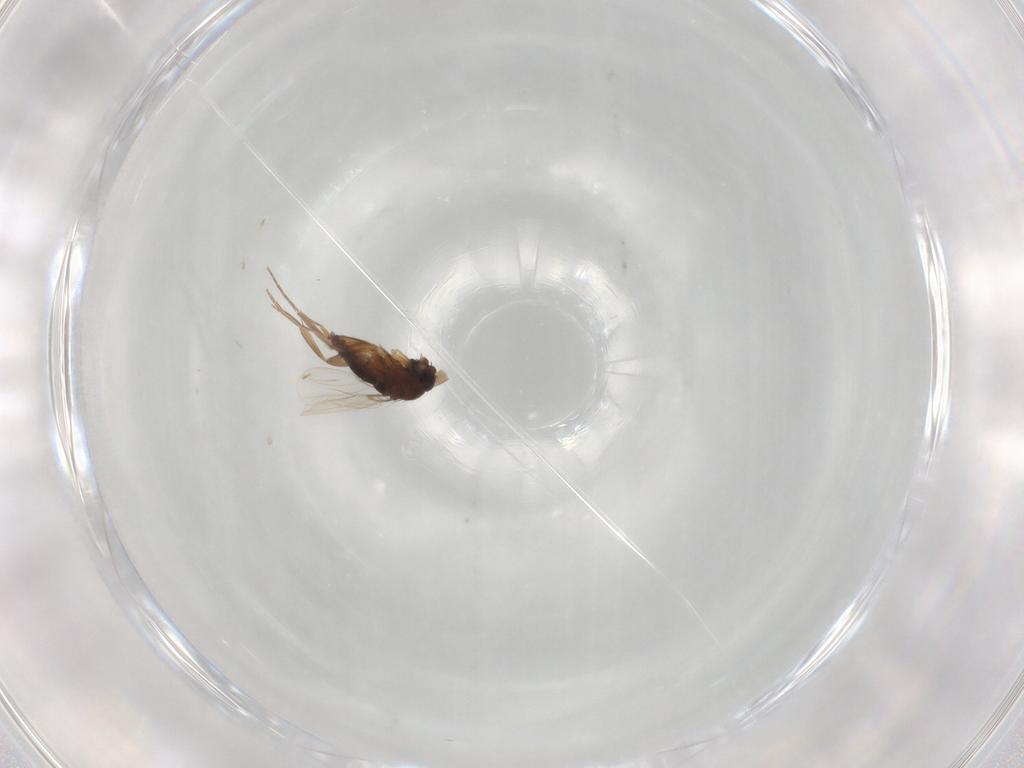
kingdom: Animalia
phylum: Arthropoda
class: Insecta
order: Diptera
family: Phoridae
